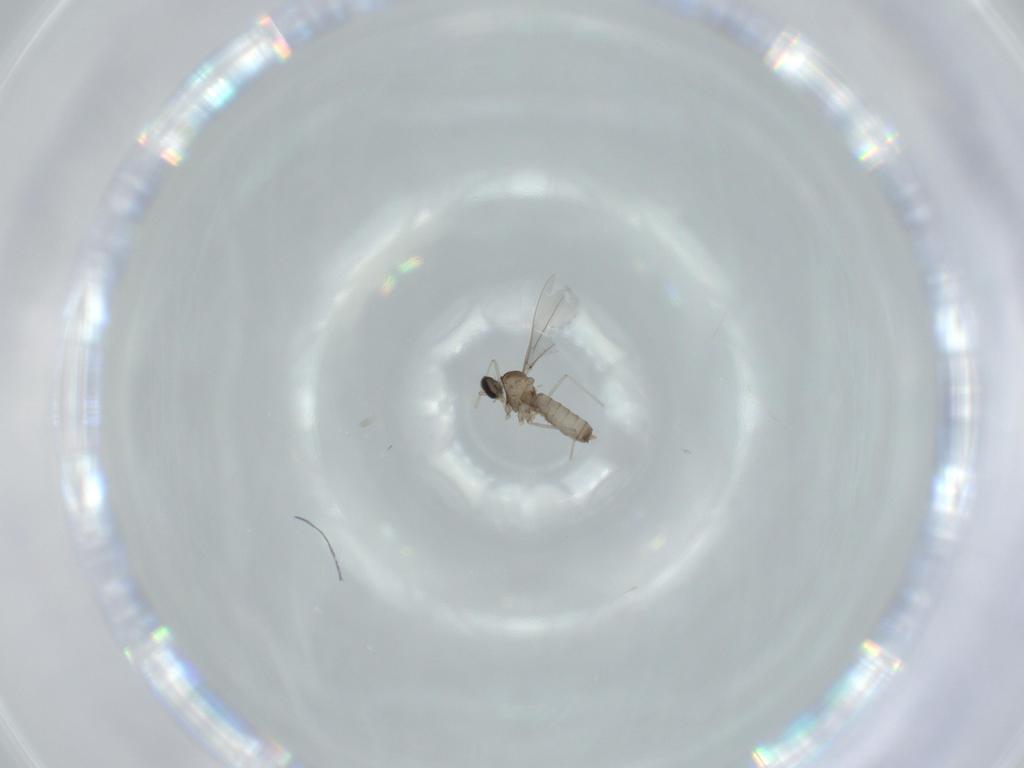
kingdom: Animalia
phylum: Arthropoda
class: Insecta
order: Diptera
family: Cecidomyiidae
